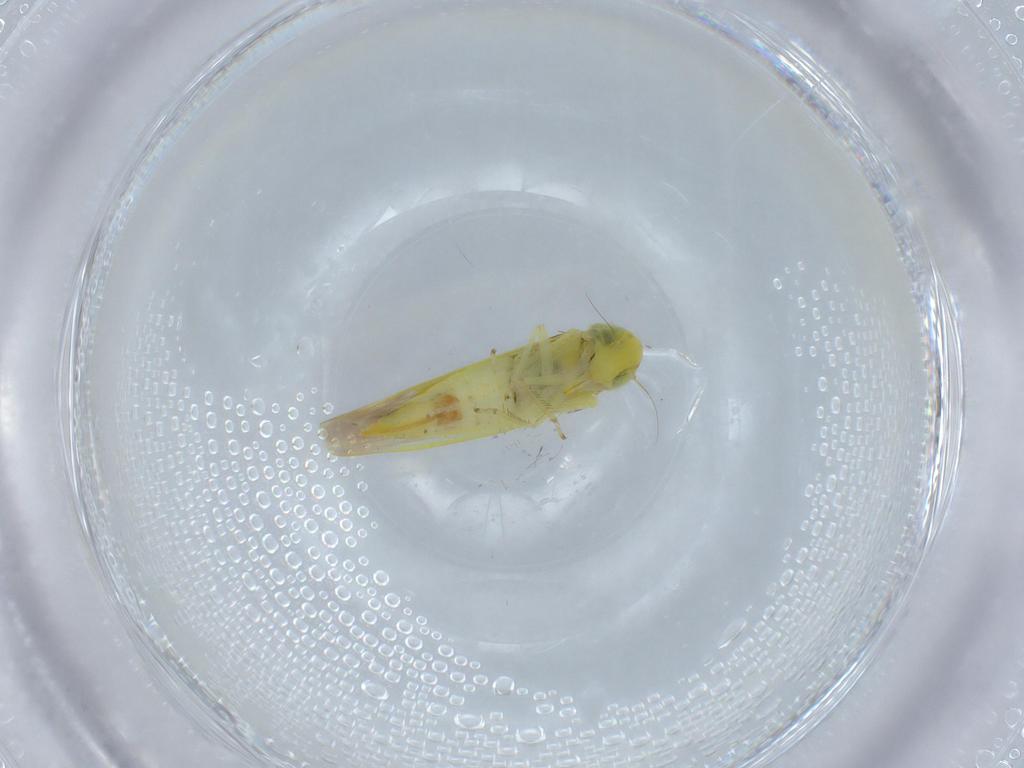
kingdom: Animalia
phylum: Arthropoda
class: Insecta
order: Hemiptera
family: Cicadellidae
